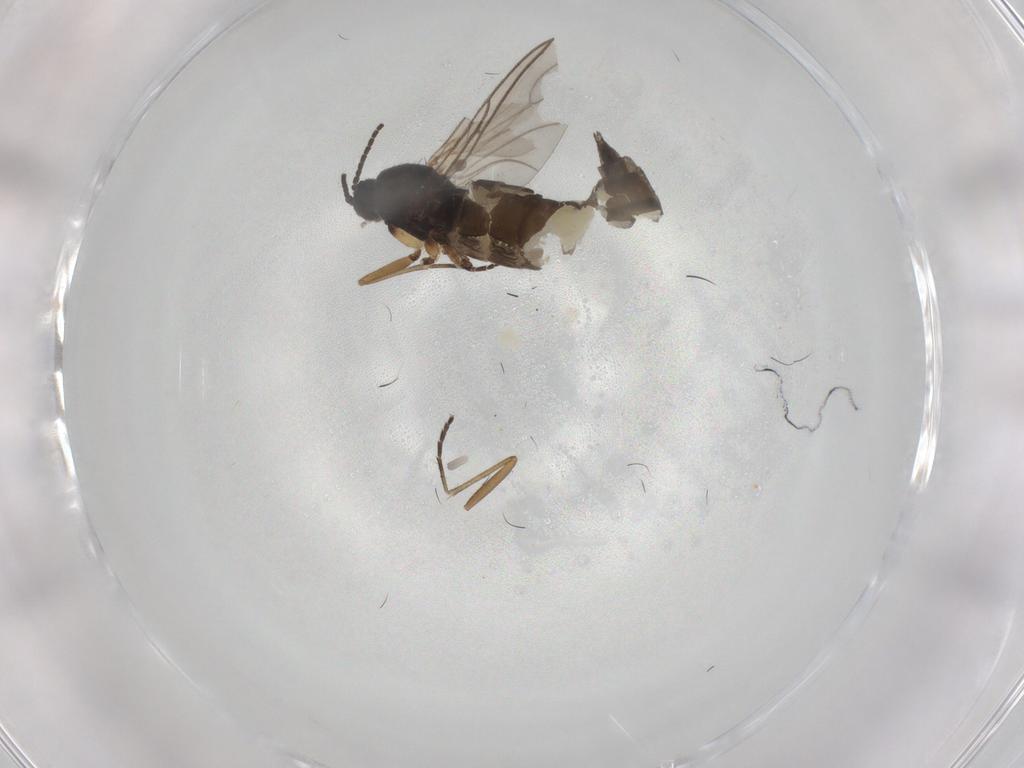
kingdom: Animalia
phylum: Arthropoda
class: Insecta
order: Diptera
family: Sciaridae
